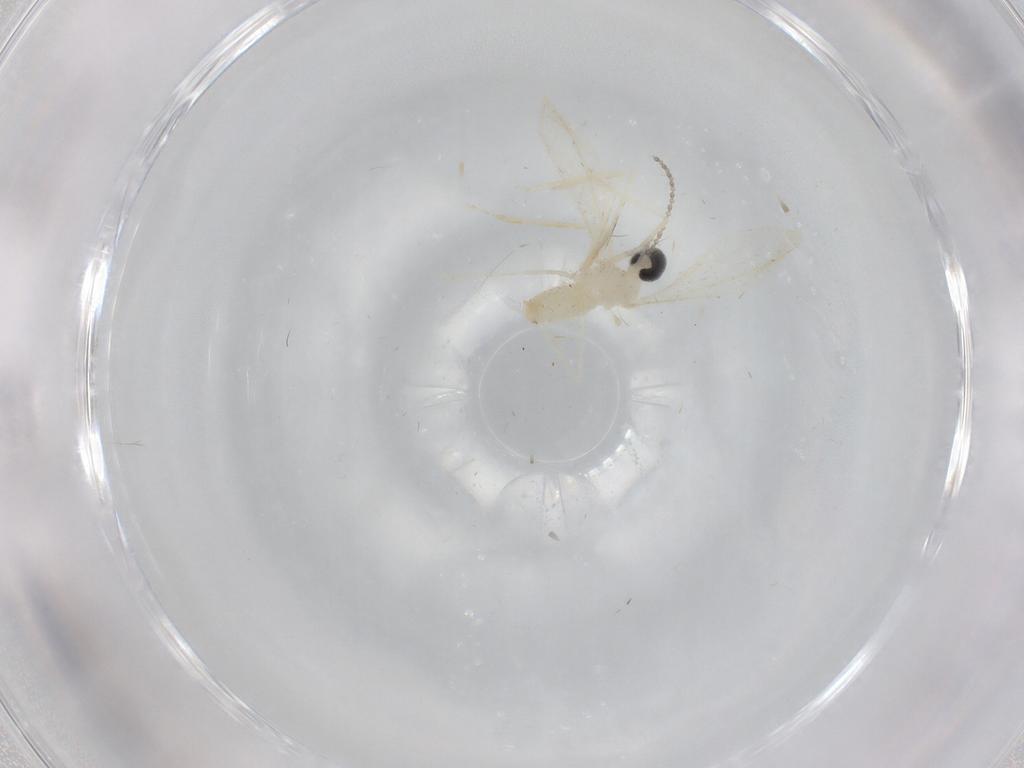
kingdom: Animalia
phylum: Arthropoda
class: Insecta
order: Diptera
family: Cecidomyiidae
